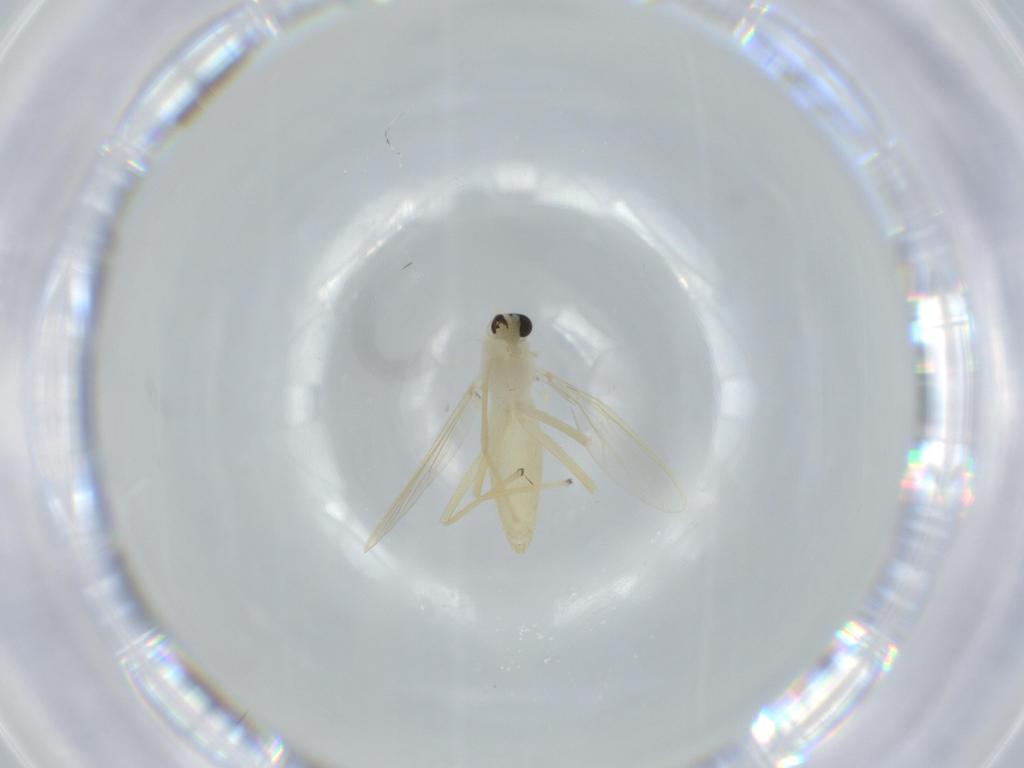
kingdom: Animalia
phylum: Arthropoda
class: Insecta
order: Diptera
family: Chironomidae
